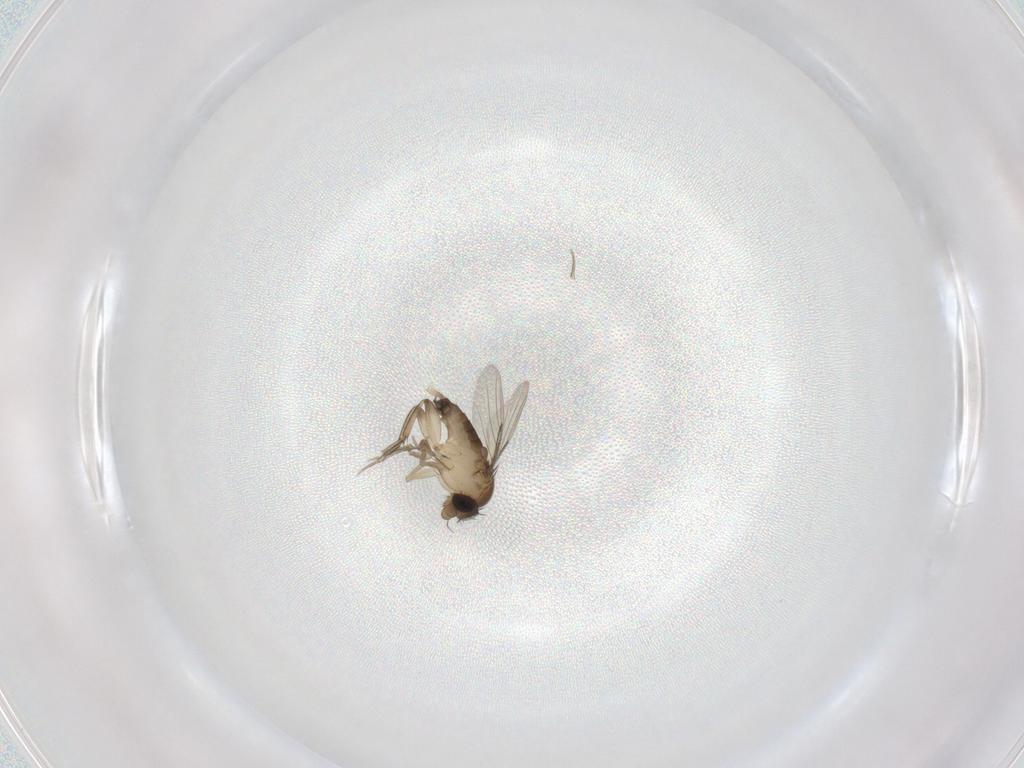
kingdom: Animalia
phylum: Arthropoda
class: Insecta
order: Diptera
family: Phoridae
